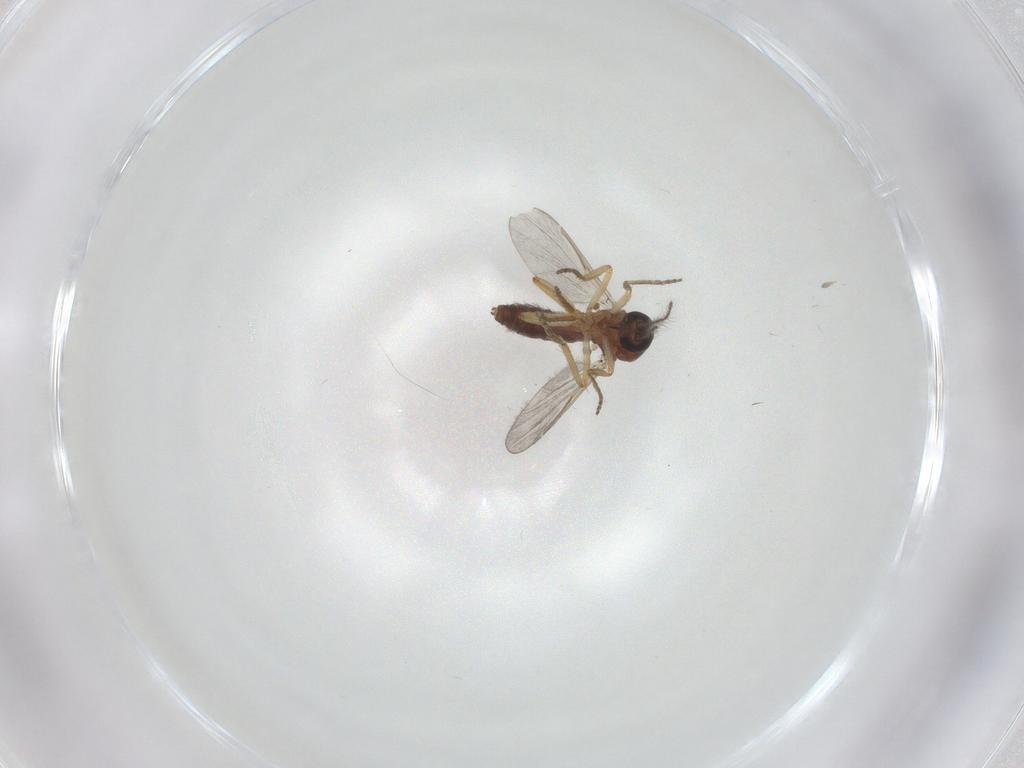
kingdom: Animalia
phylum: Arthropoda
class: Insecta
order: Diptera
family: Ceratopogonidae
